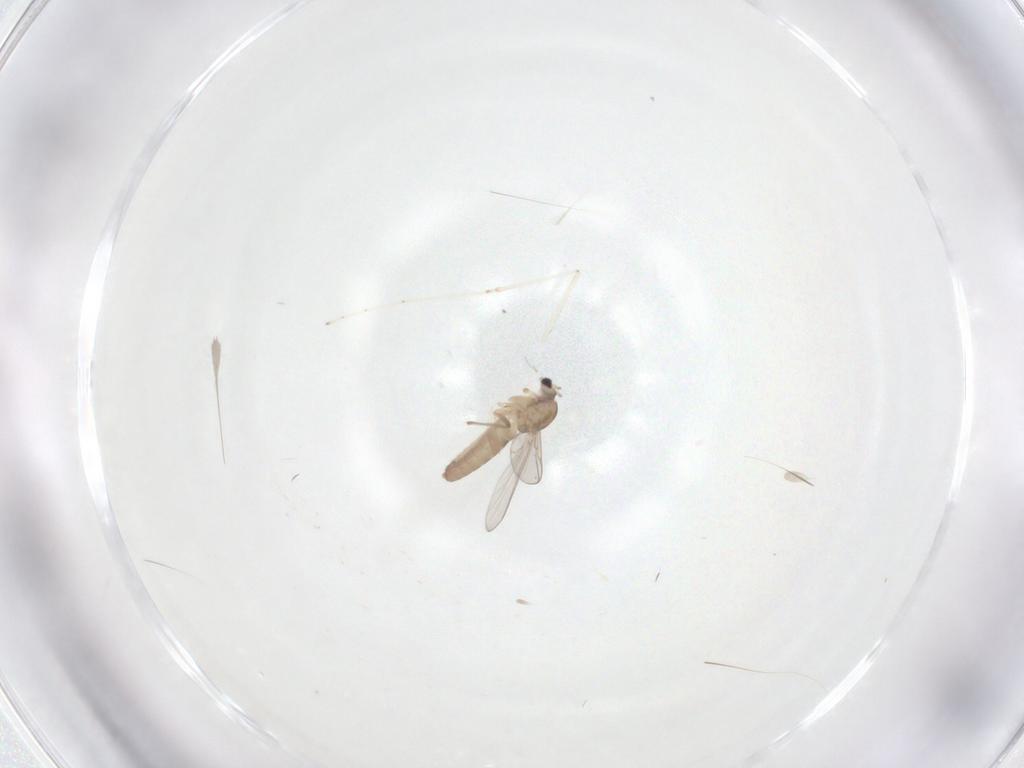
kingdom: Animalia
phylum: Arthropoda
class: Insecta
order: Diptera
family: Chironomidae
